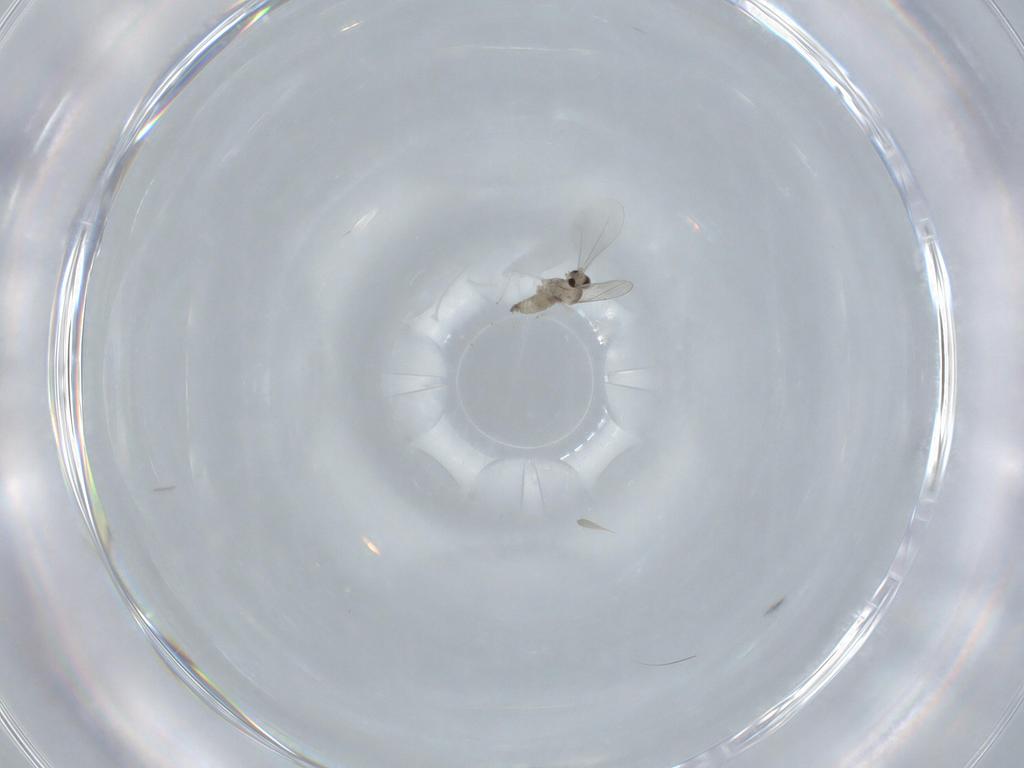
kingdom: Animalia
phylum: Arthropoda
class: Insecta
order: Diptera
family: Cecidomyiidae
